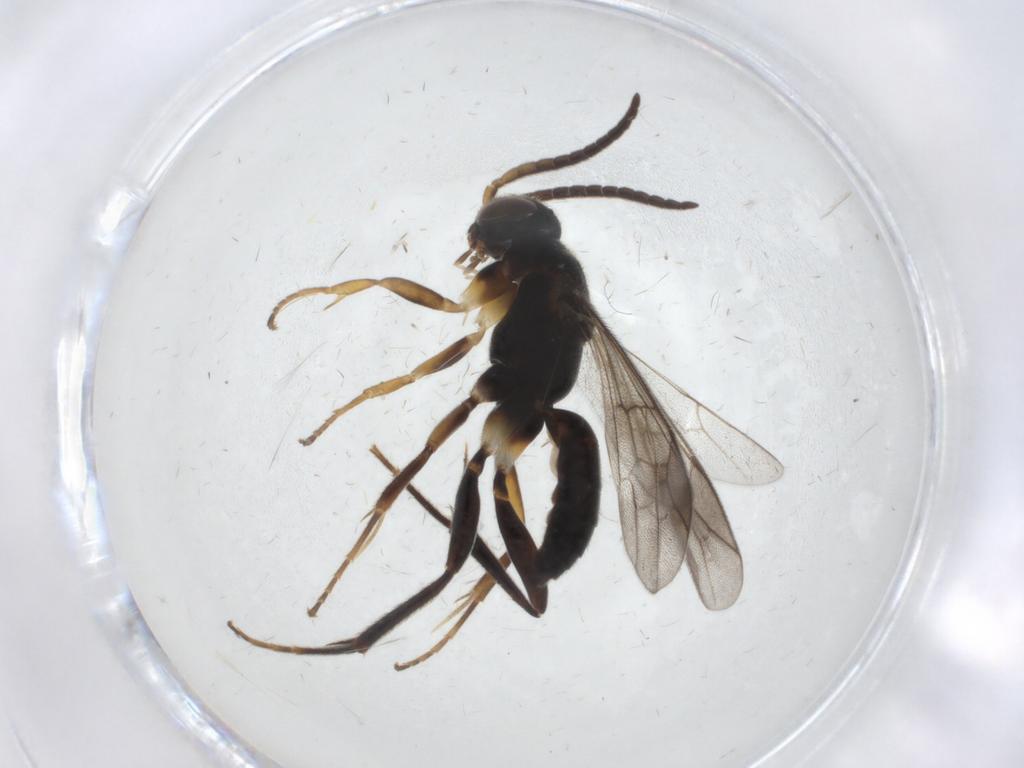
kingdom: Animalia
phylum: Arthropoda
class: Insecta
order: Hymenoptera
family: Pompilidae
